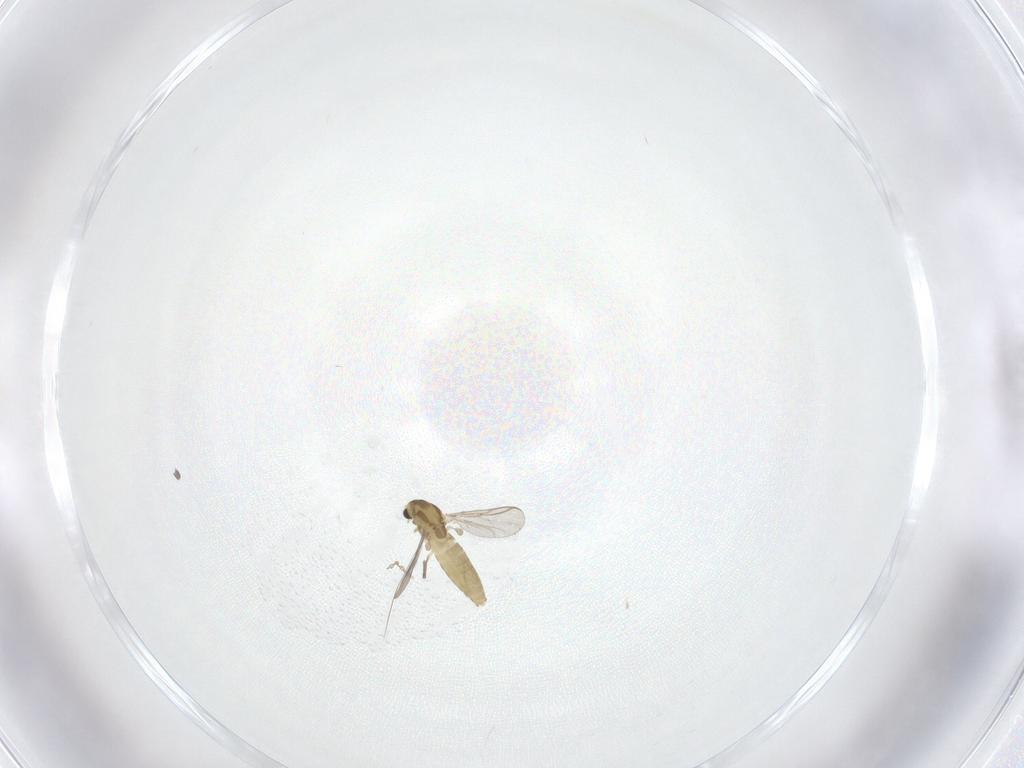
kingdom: Animalia
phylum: Arthropoda
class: Insecta
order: Diptera
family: Chironomidae
